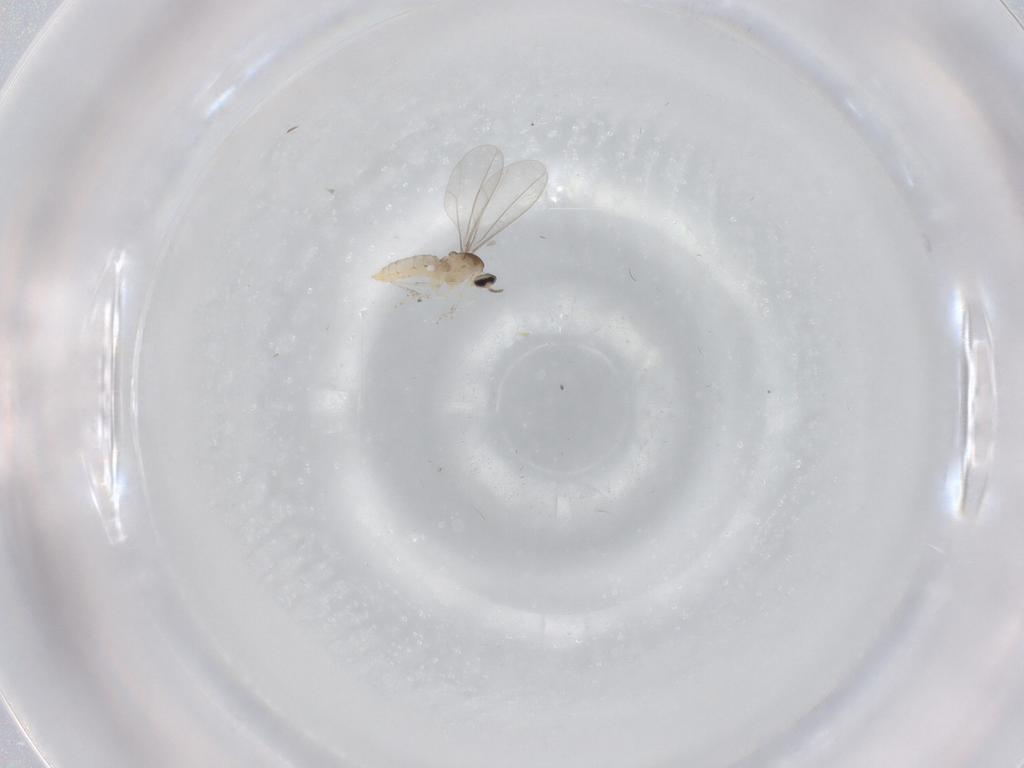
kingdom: Animalia
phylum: Arthropoda
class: Insecta
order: Diptera
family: Cecidomyiidae
